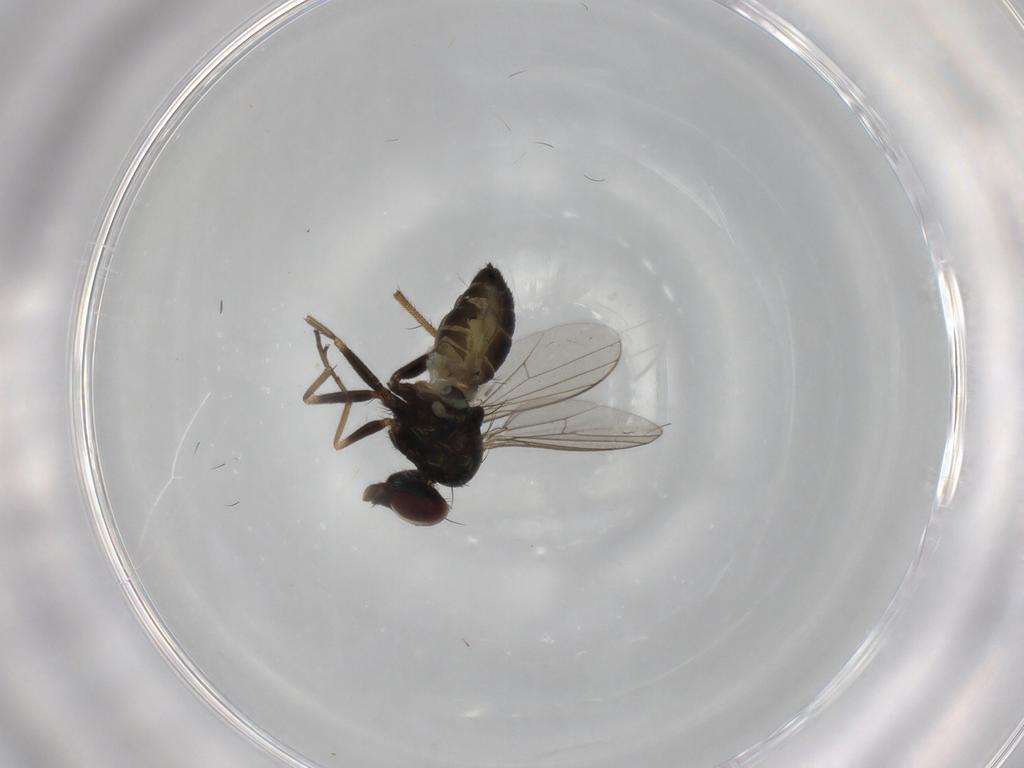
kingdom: Animalia
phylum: Arthropoda
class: Insecta
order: Diptera
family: Dolichopodidae
